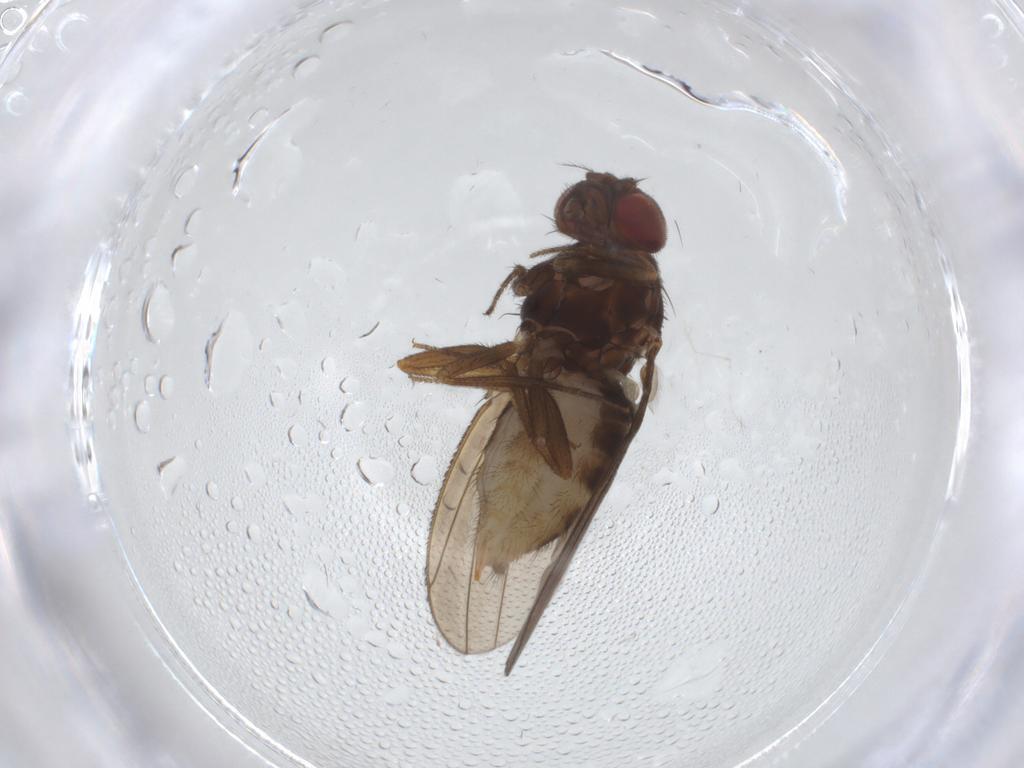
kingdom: Animalia
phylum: Arthropoda
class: Insecta
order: Diptera
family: Drosophilidae
